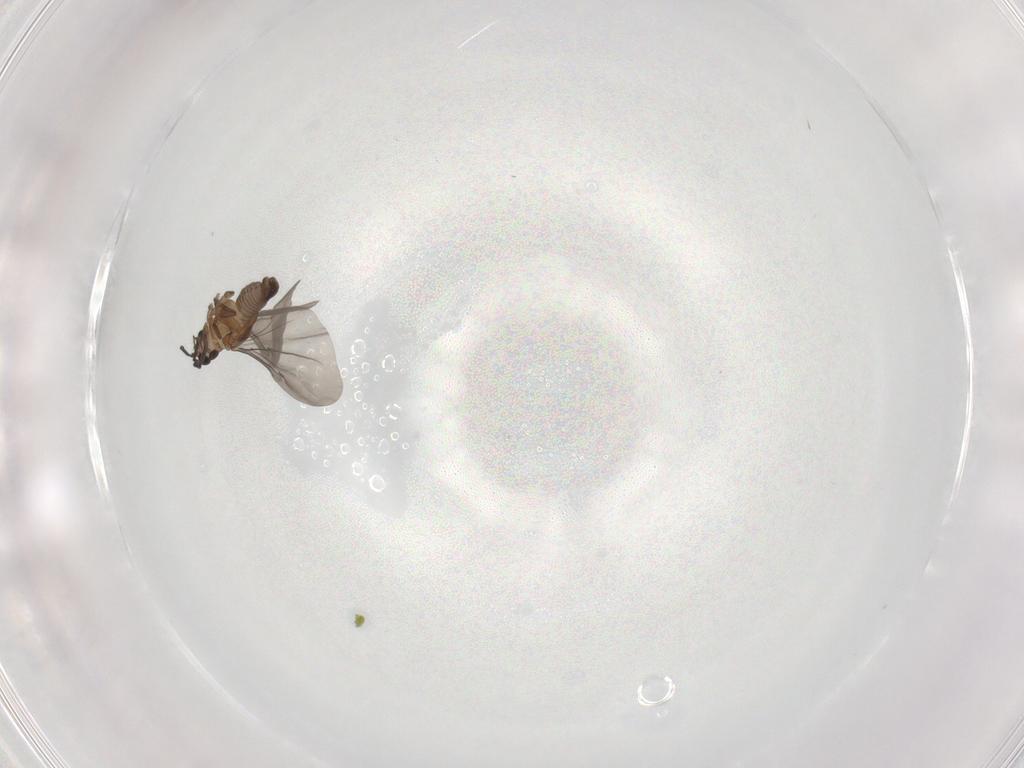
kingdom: Animalia
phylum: Arthropoda
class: Insecta
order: Strepsiptera
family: Myrmecolacidae
